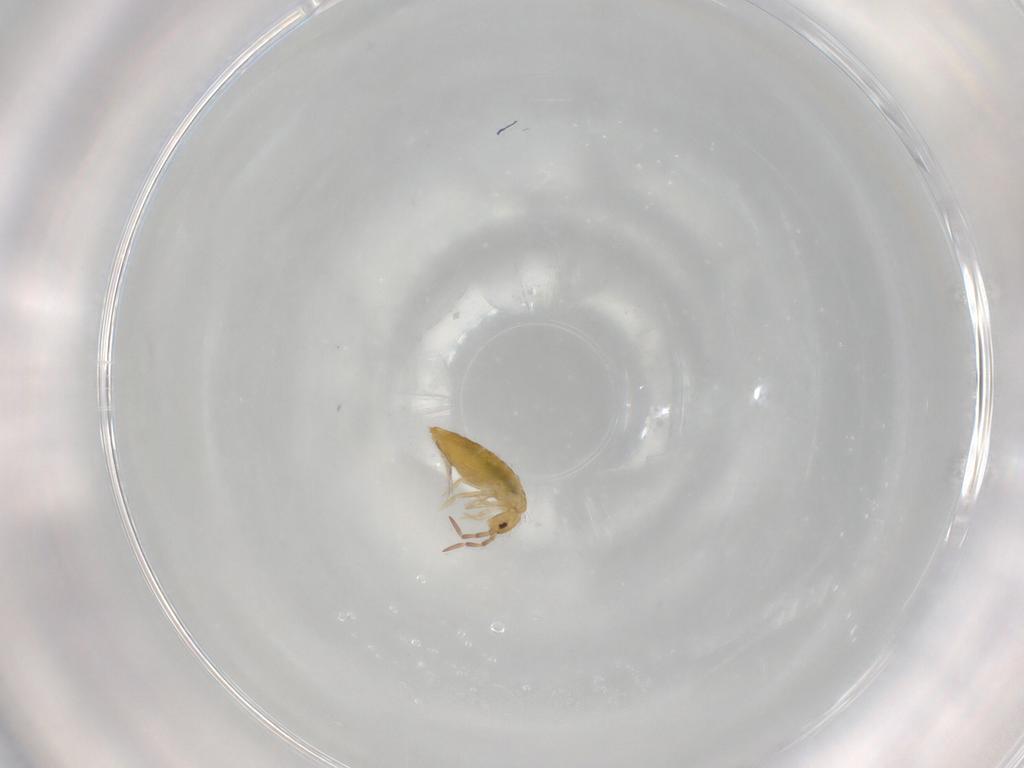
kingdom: Animalia
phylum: Arthropoda
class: Collembola
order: Entomobryomorpha
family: Entomobryidae
